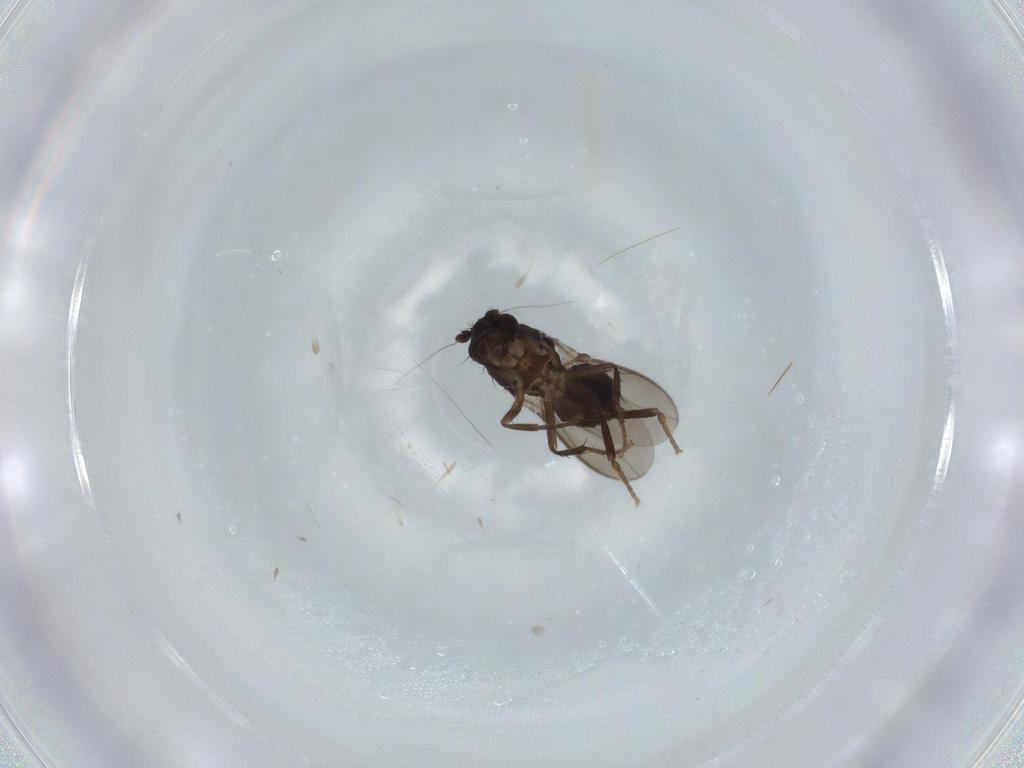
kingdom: Animalia
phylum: Arthropoda
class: Insecta
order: Diptera
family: Sphaeroceridae
